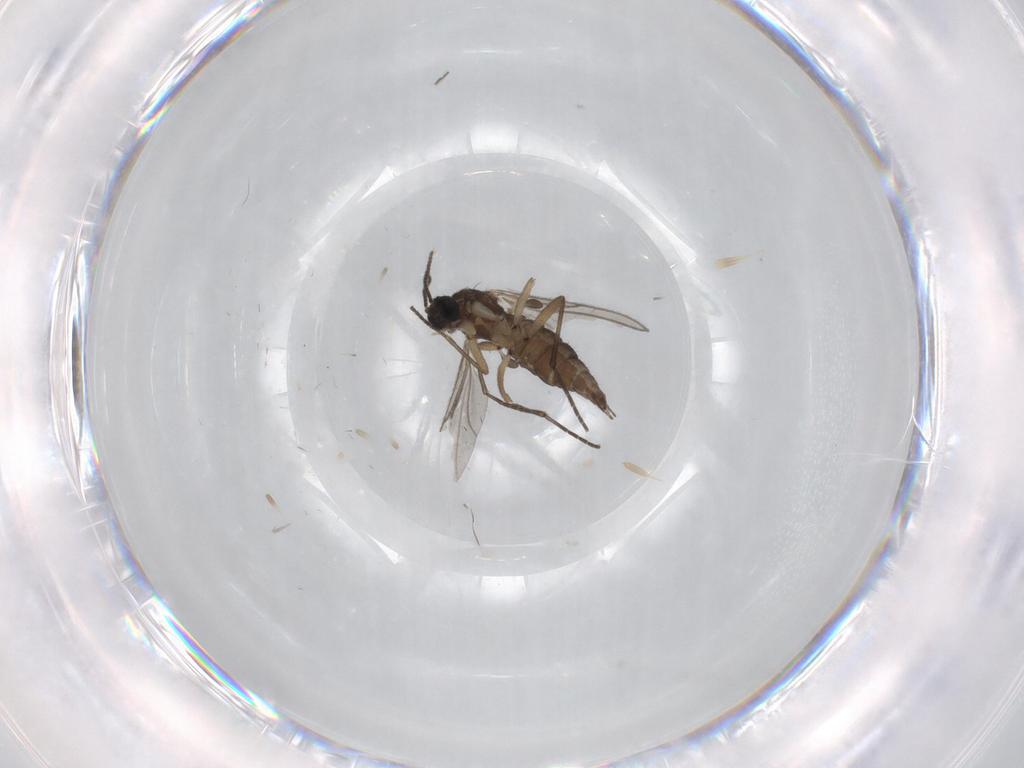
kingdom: Animalia
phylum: Arthropoda
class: Insecta
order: Diptera
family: Sciaridae
